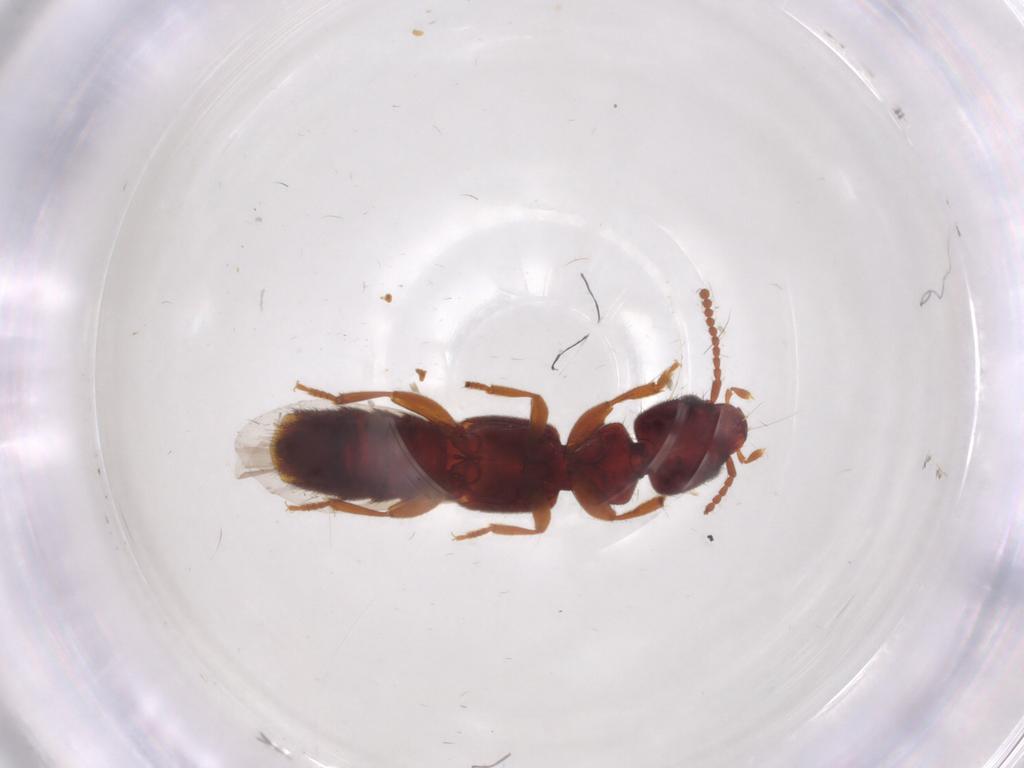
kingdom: Animalia
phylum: Arthropoda
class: Insecta
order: Coleoptera
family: Endomychidae
